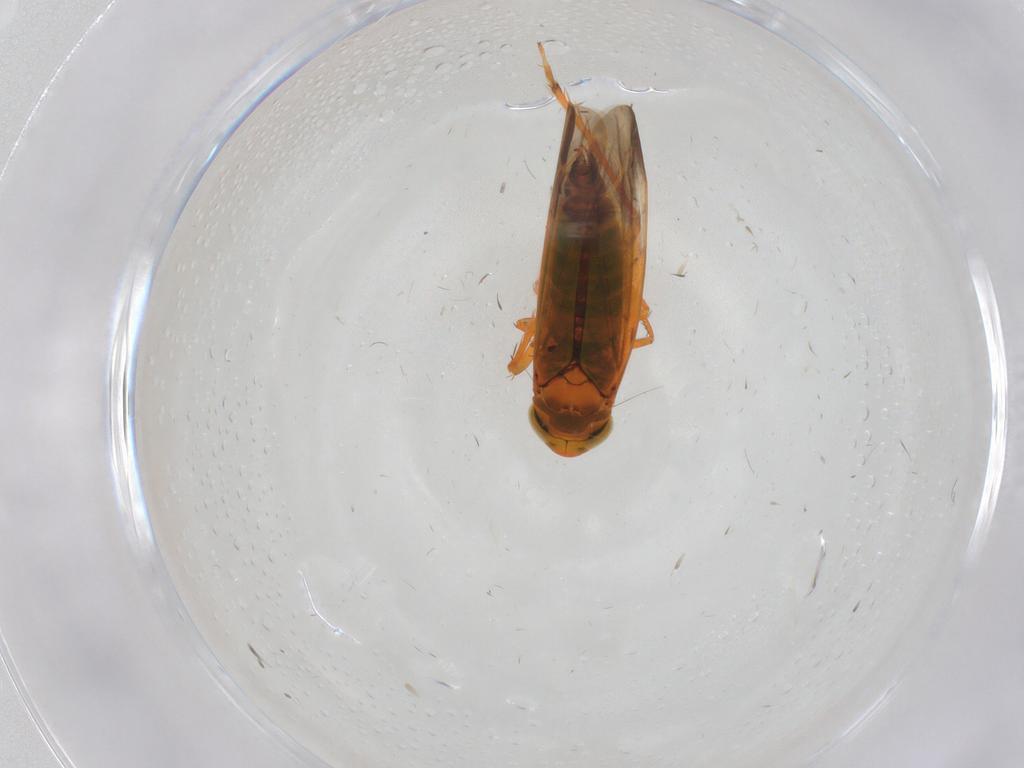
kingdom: Animalia
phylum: Arthropoda
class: Insecta
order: Hemiptera
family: Cicadellidae
